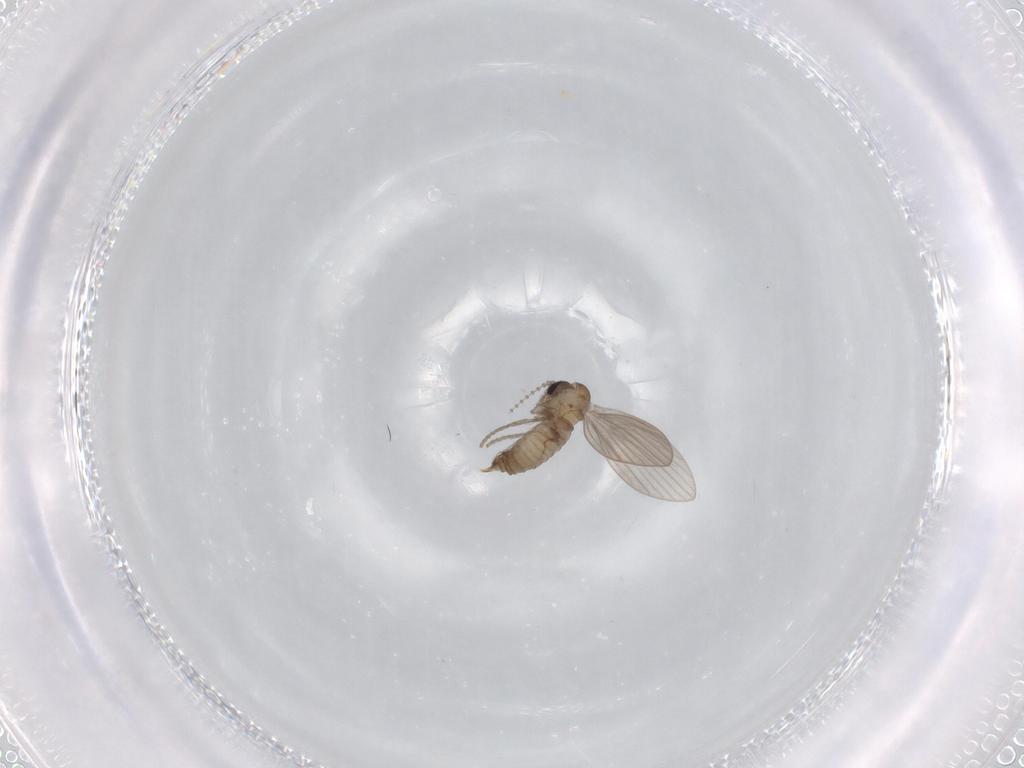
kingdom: Animalia
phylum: Arthropoda
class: Insecta
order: Diptera
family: Psychodidae
